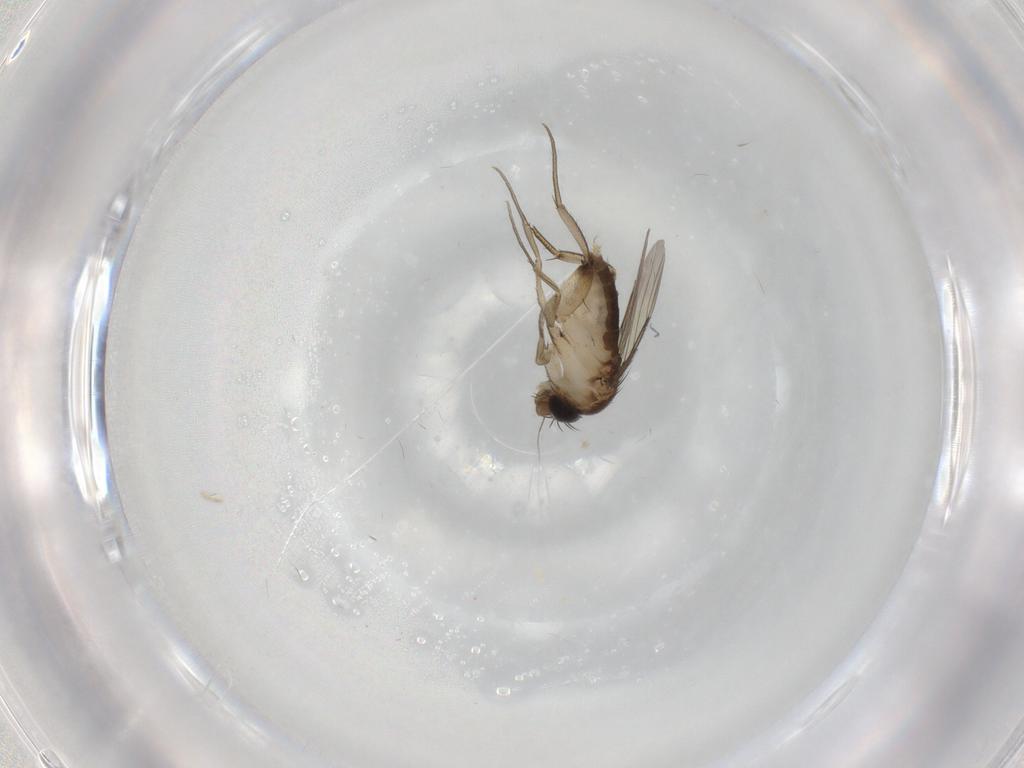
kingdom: Animalia
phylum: Arthropoda
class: Insecta
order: Diptera
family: Phoridae
